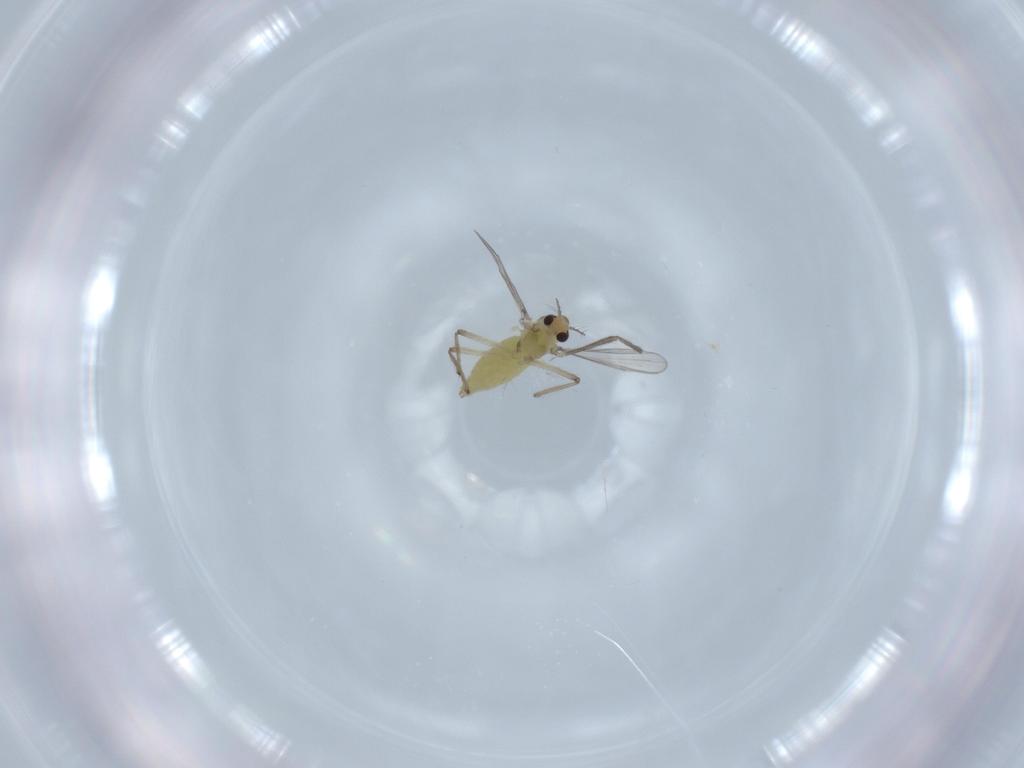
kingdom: Animalia
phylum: Arthropoda
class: Insecta
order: Diptera
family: Chironomidae
